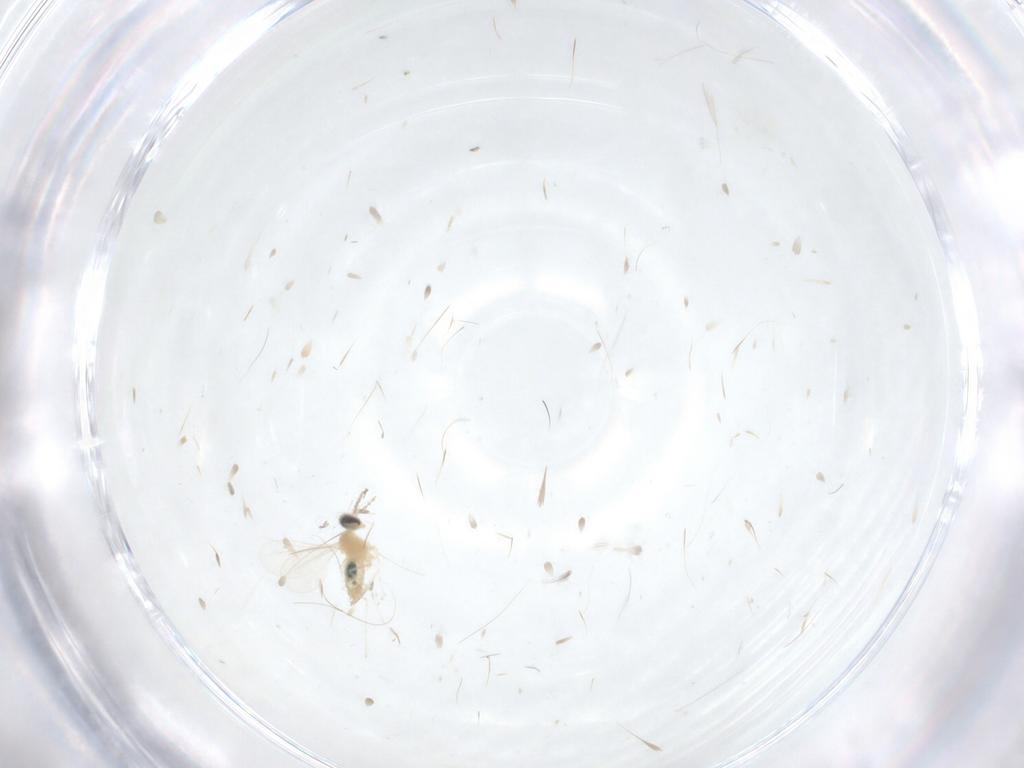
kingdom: Animalia
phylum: Arthropoda
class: Insecta
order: Diptera
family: Cecidomyiidae
